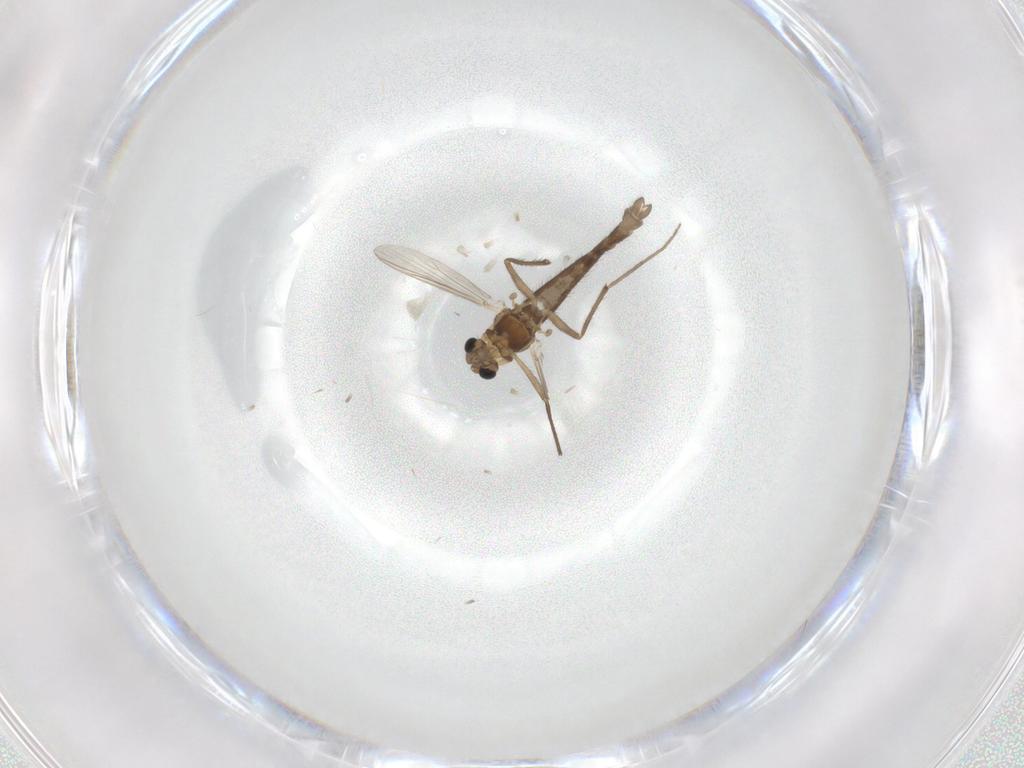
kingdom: Animalia
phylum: Arthropoda
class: Insecta
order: Diptera
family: Chironomidae
